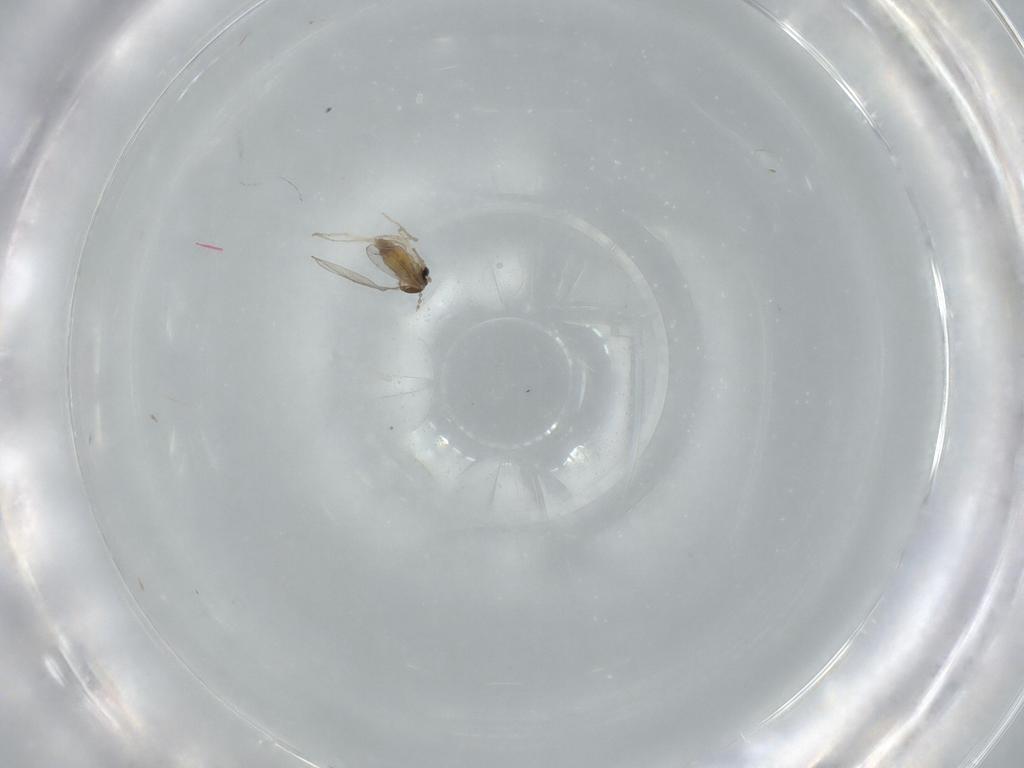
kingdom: Animalia
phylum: Arthropoda
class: Insecta
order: Diptera
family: Cecidomyiidae
